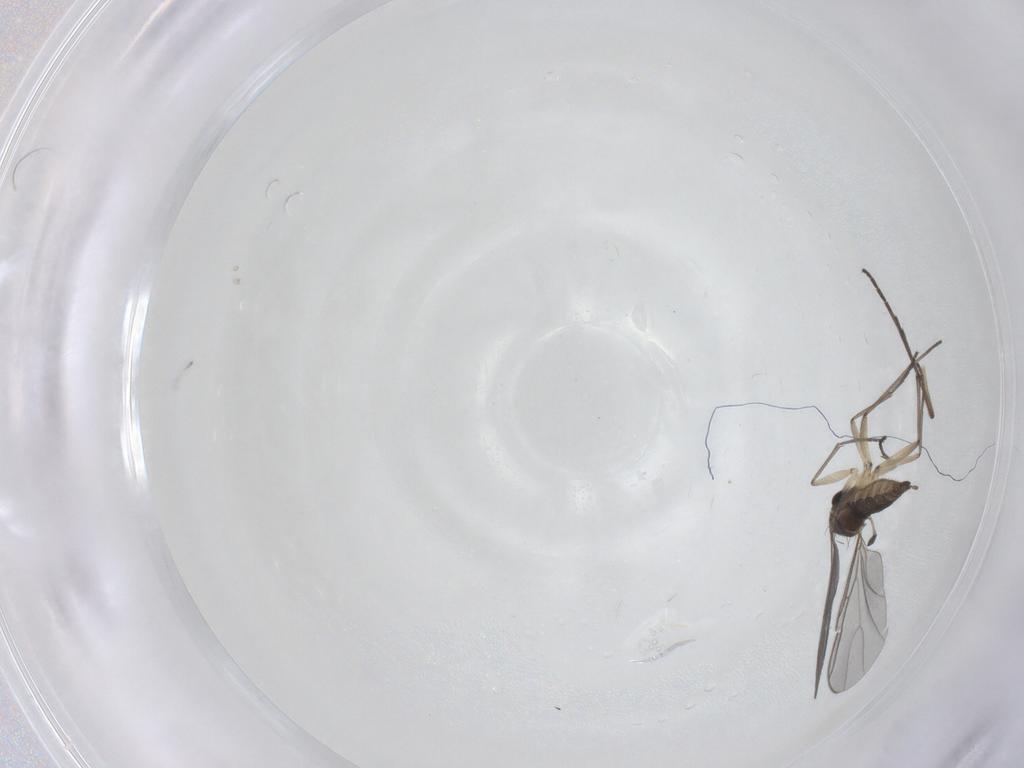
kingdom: Animalia
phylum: Arthropoda
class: Insecta
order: Diptera
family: Sciaridae
